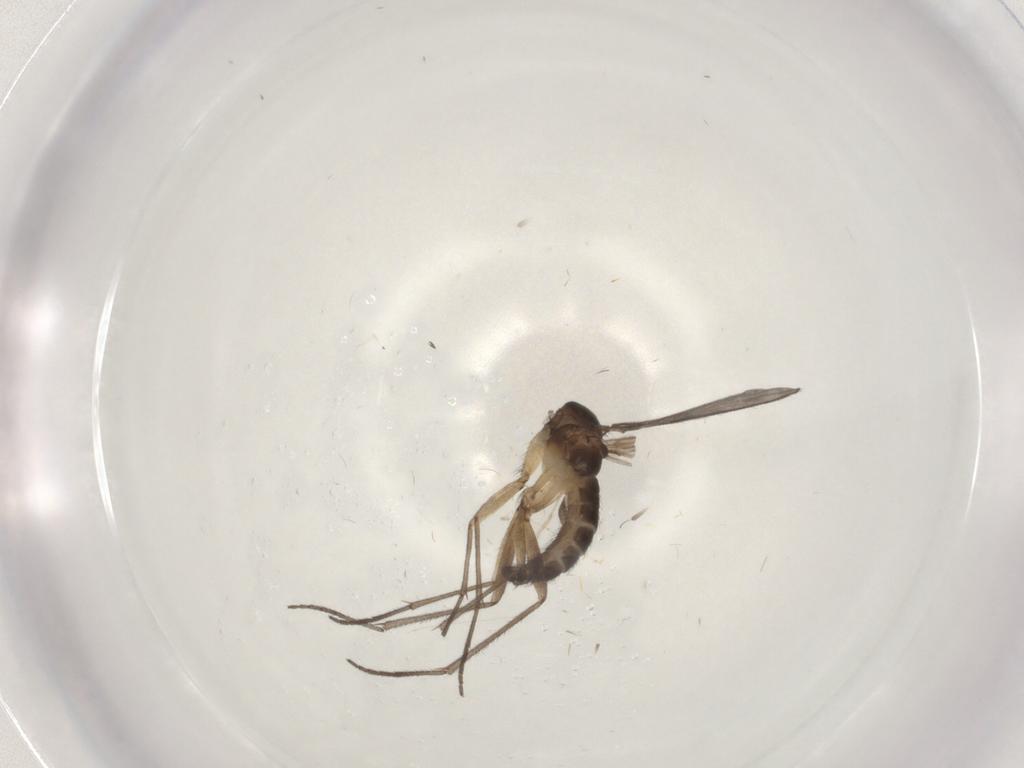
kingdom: Animalia
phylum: Arthropoda
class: Insecta
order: Diptera
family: Sciaridae
